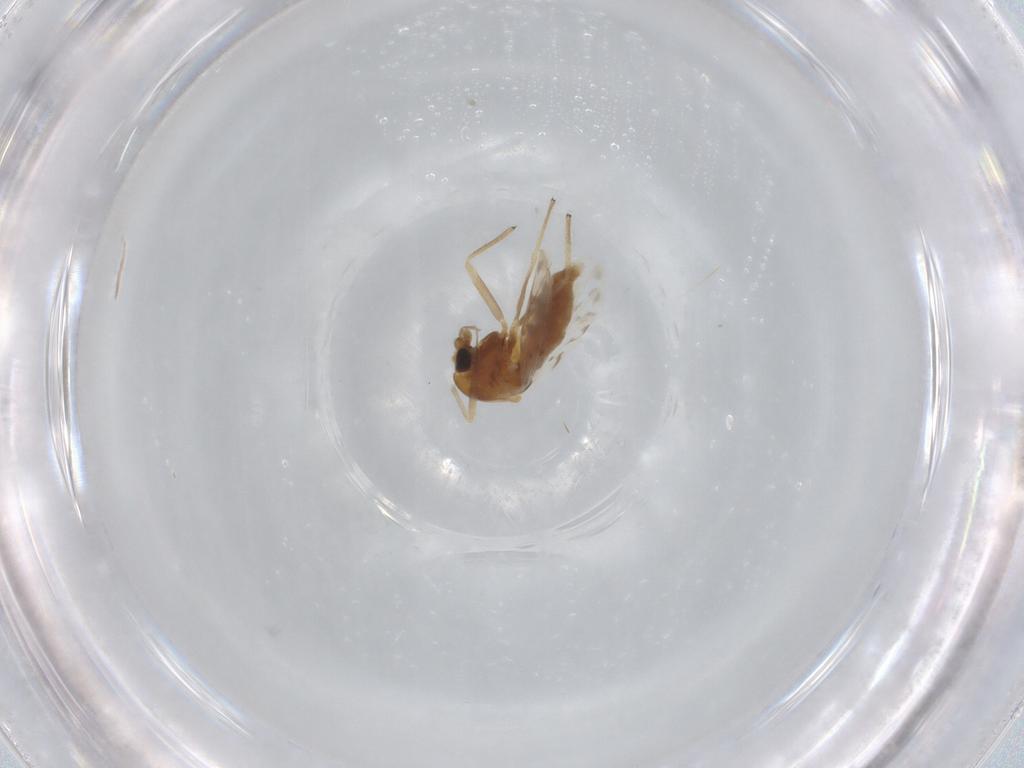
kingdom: Animalia
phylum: Arthropoda
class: Insecta
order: Diptera
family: Chironomidae
